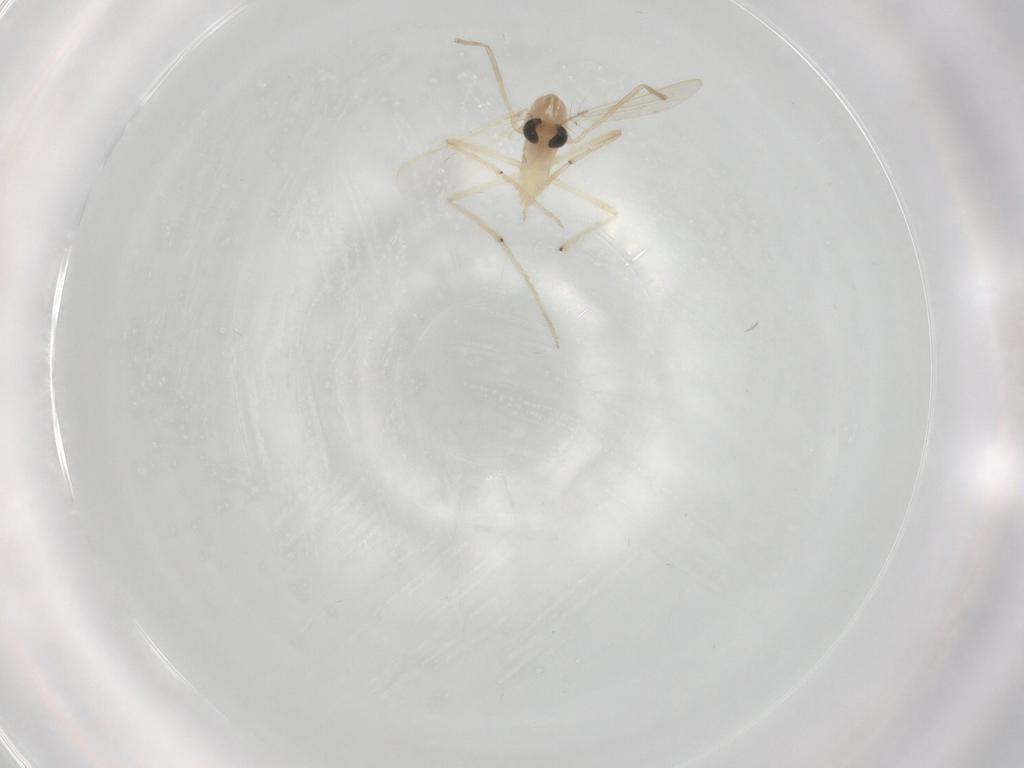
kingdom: Animalia
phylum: Arthropoda
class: Insecta
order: Diptera
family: Chironomidae
